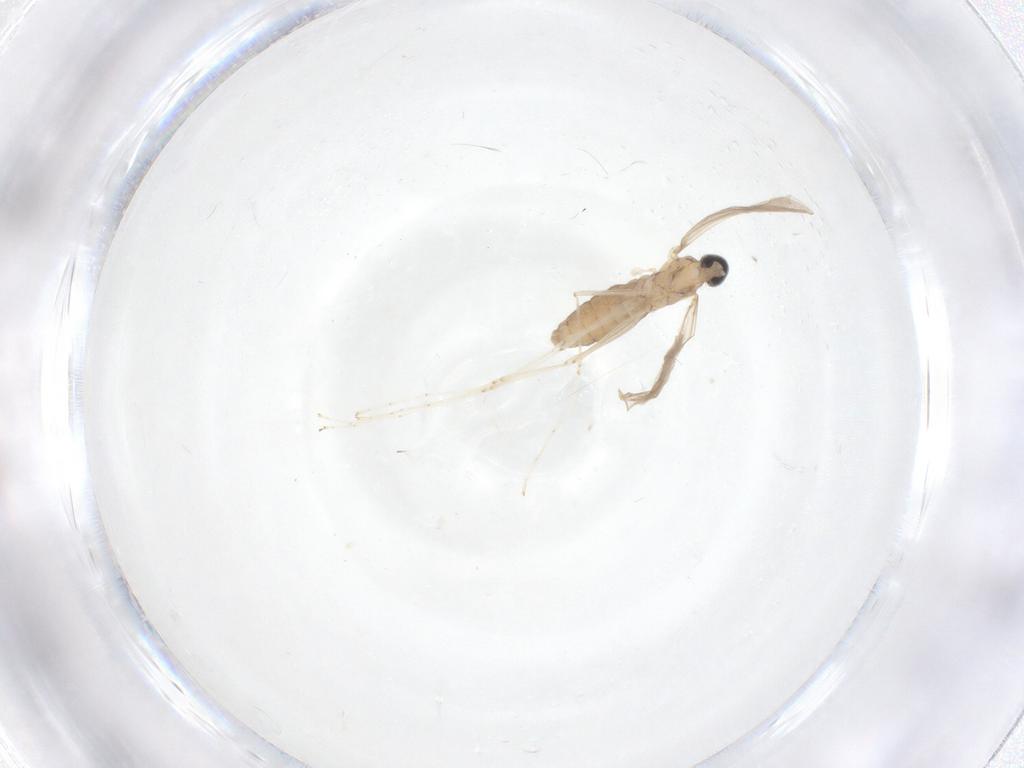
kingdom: Animalia
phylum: Arthropoda
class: Insecta
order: Diptera
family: Cecidomyiidae
